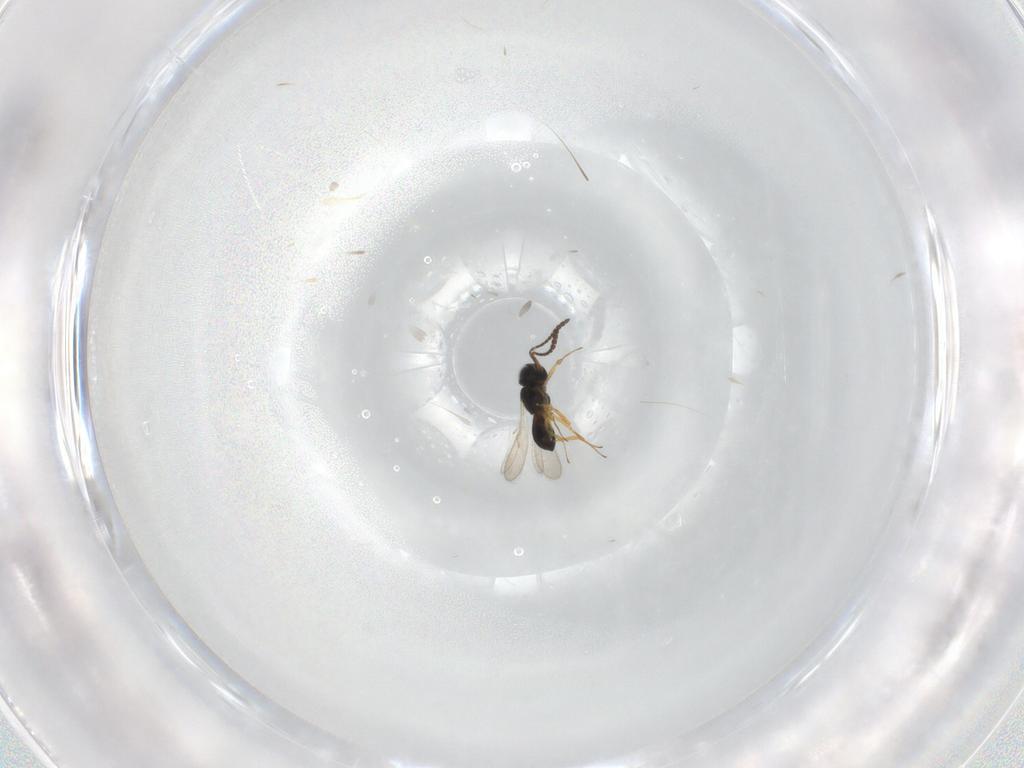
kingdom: Animalia
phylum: Arthropoda
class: Insecta
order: Hymenoptera
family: Scelionidae
